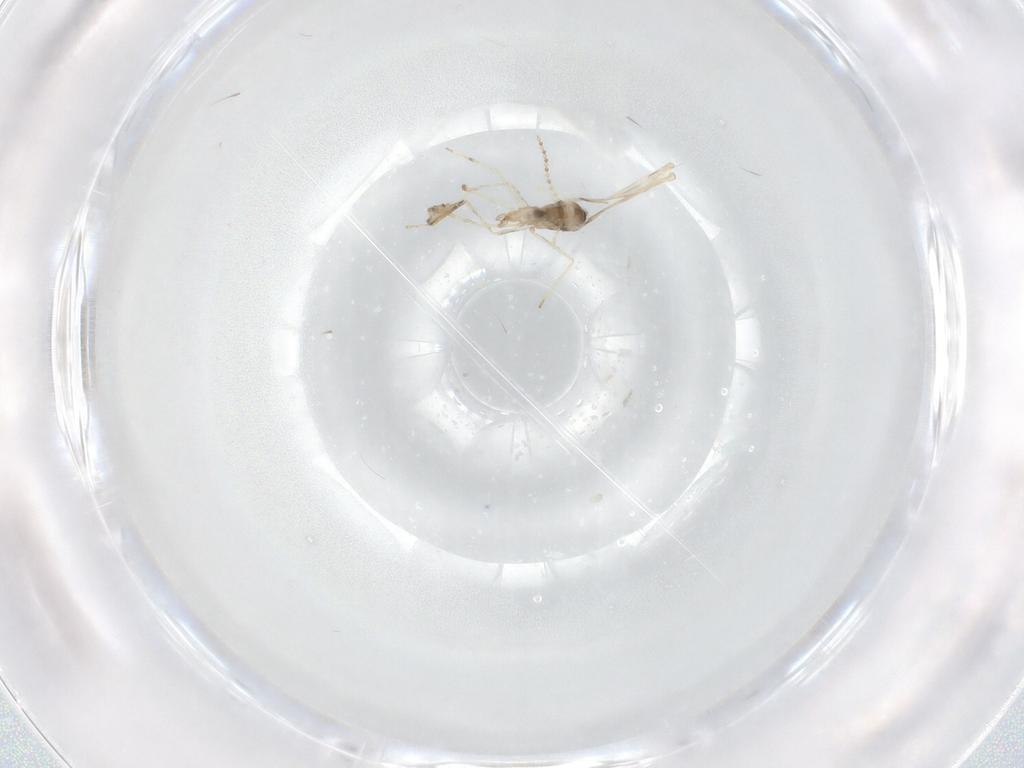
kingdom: Animalia
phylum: Arthropoda
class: Insecta
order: Diptera
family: Cecidomyiidae
